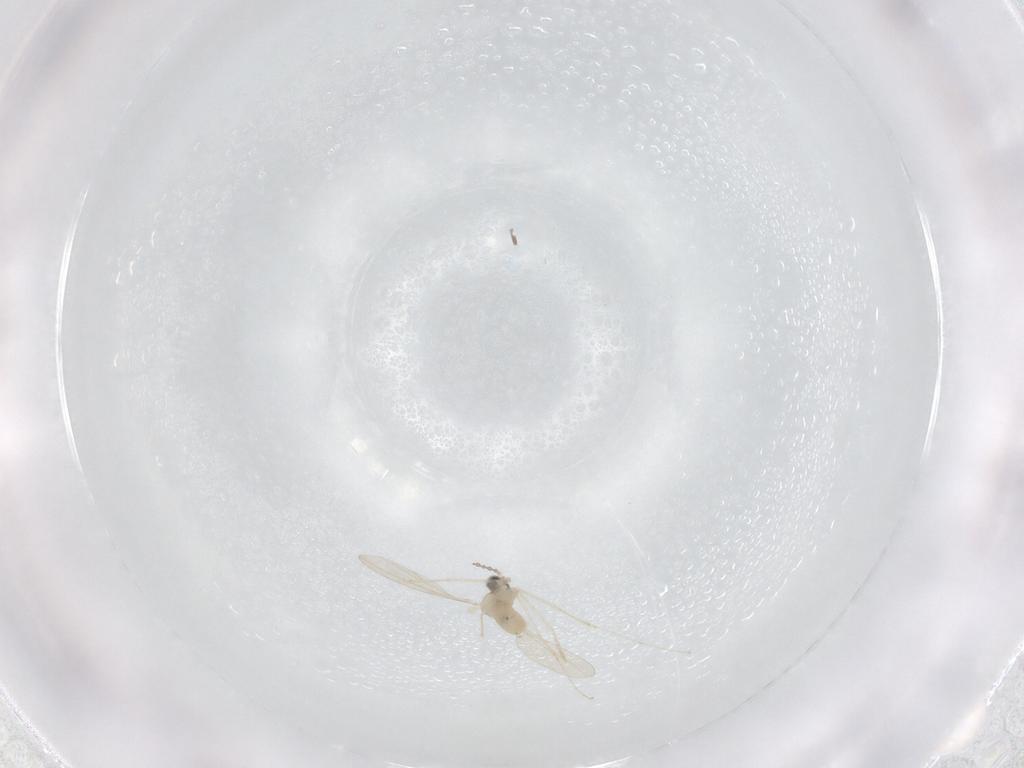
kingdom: Animalia
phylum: Arthropoda
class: Insecta
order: Diptera
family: Cecidomyiidae
